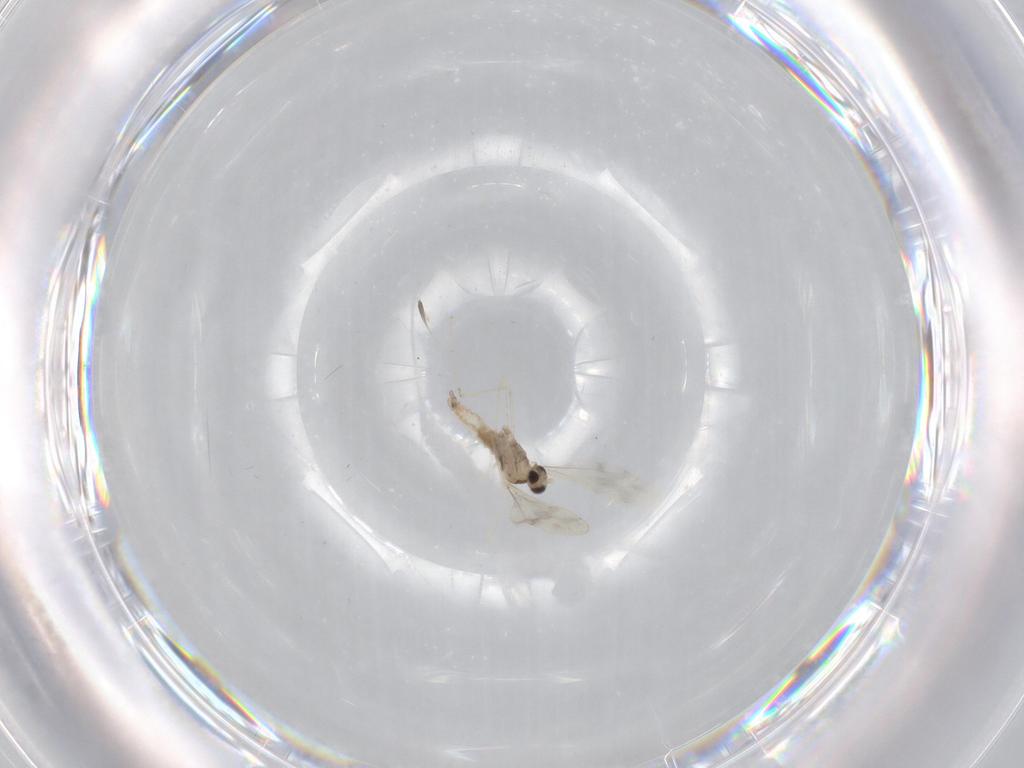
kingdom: Animalia
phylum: Arthropoda
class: Insecta
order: Diptera
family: Cecidomyiidae
